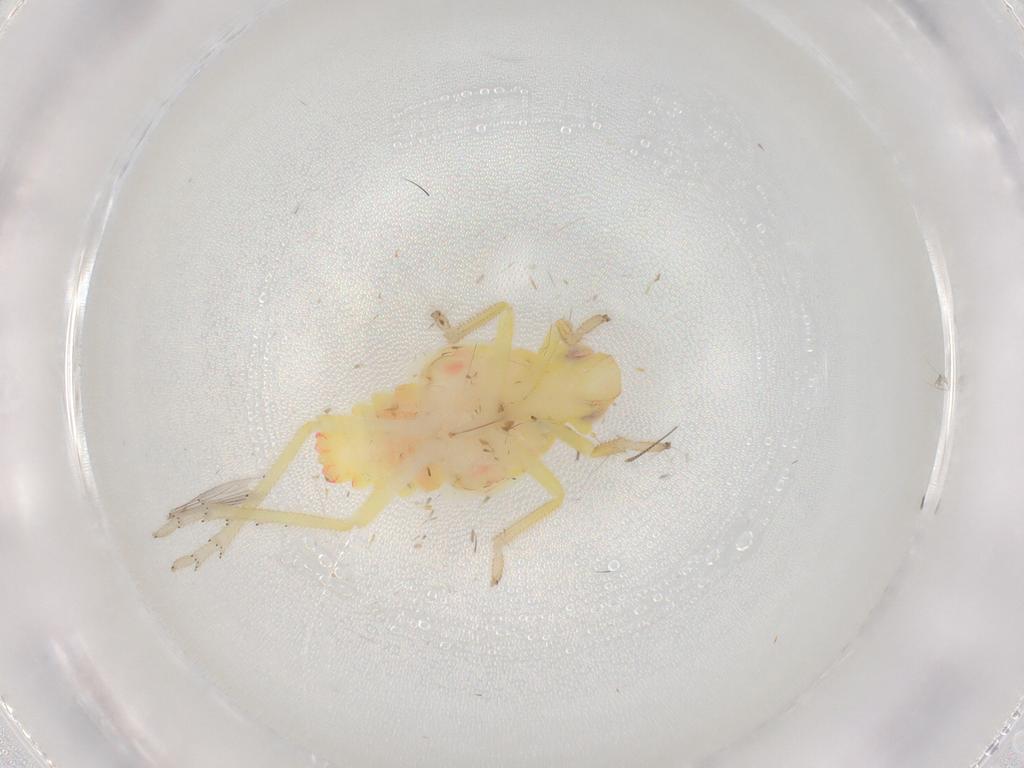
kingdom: Animalia
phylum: Arthropoda
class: Insecta
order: Hemiptera
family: Tropiduchidae
